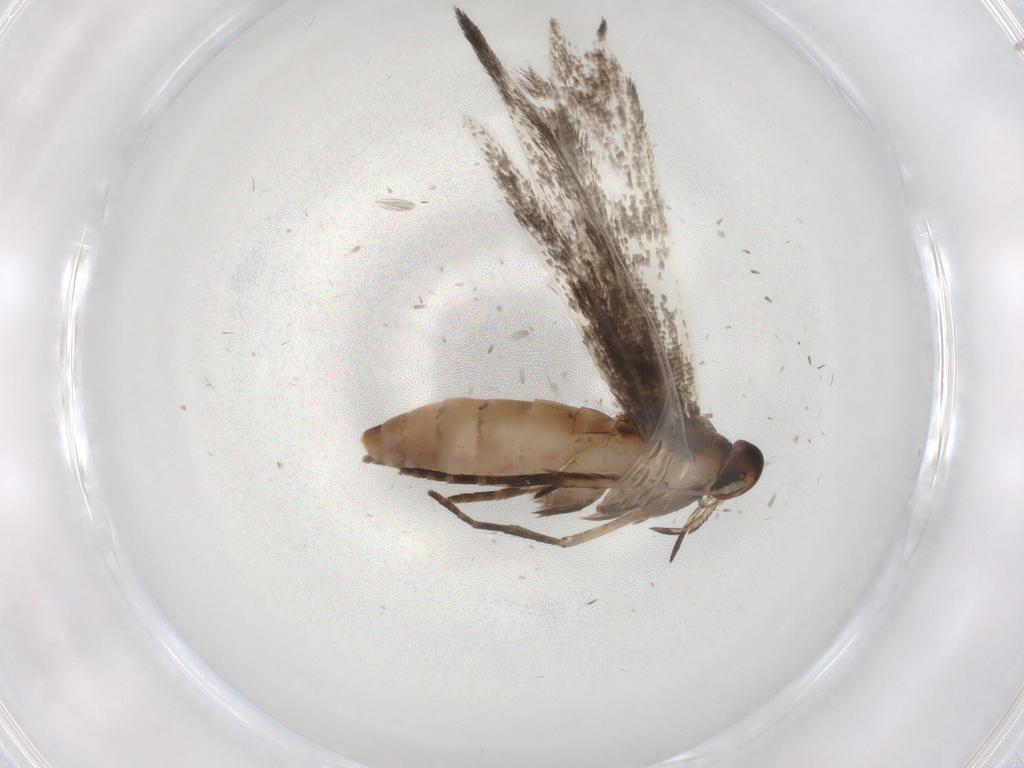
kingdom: Animalia
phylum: Arthropoda
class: Insecta
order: Lepidoptera
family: Gelechiidae
